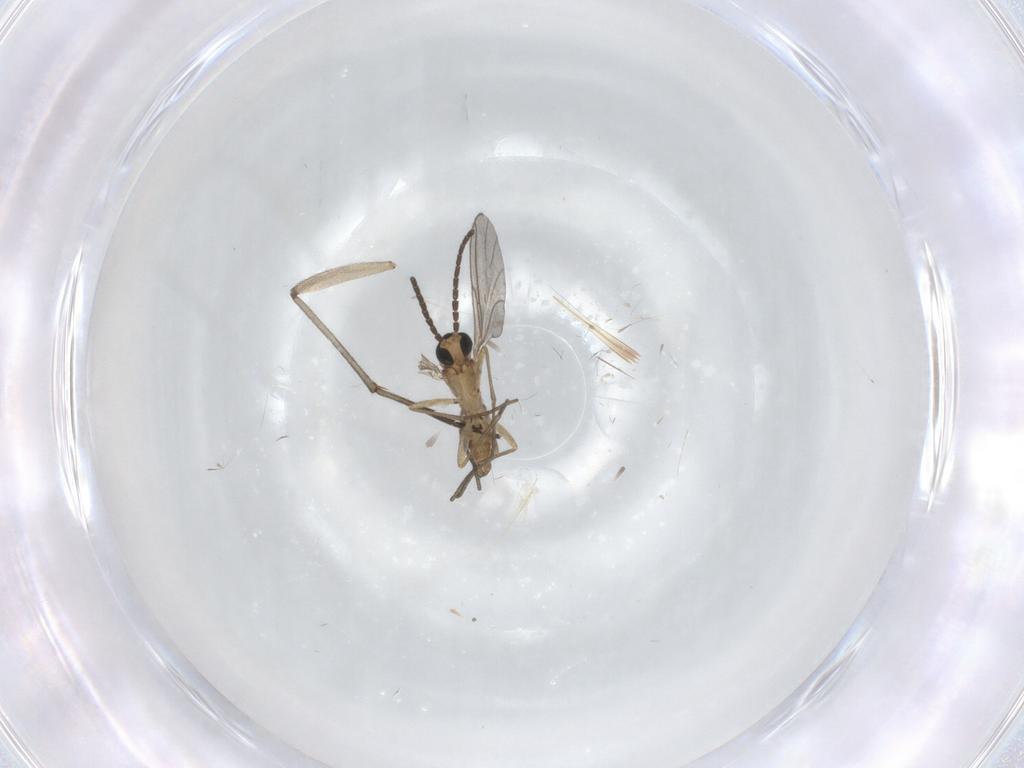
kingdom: Animalia
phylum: Arthropoda
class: Insecta
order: Diptera
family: Sciaridae
